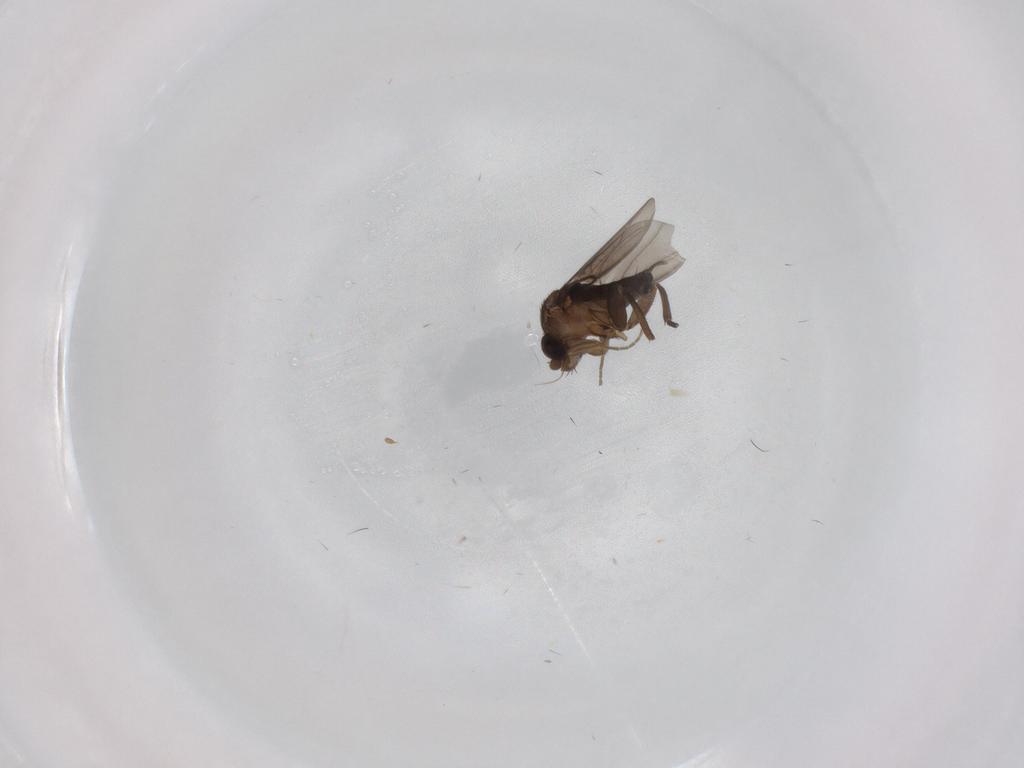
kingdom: Animalia
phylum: Arthropoda
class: Insecta
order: Diptera
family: Phoridae
